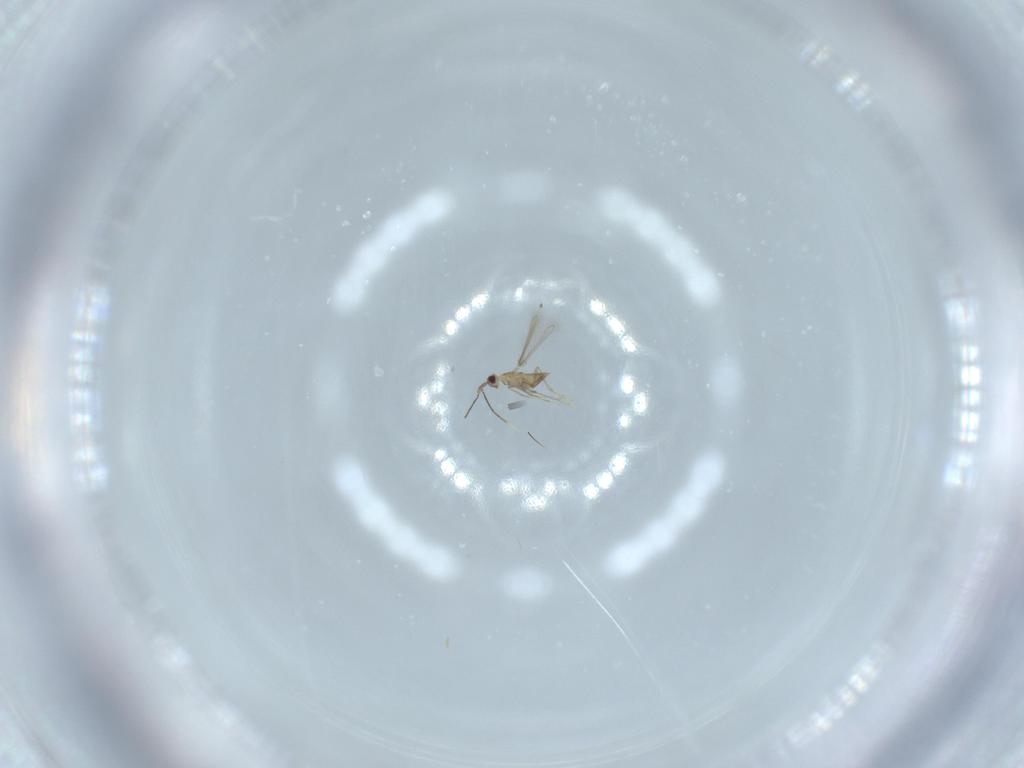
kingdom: Animalia
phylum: Arthropoda
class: Insecta
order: Hymenoptera
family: Mymaridae
